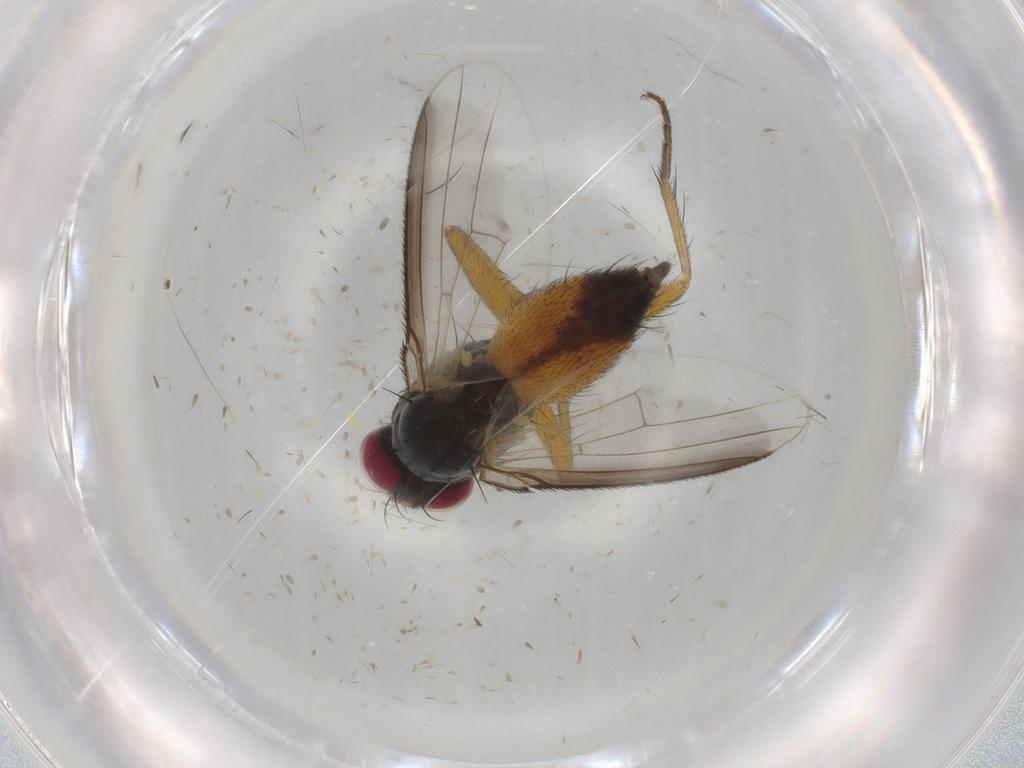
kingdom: Animalia
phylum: Arthropoda
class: Insecta
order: Diptera
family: Muscidae
